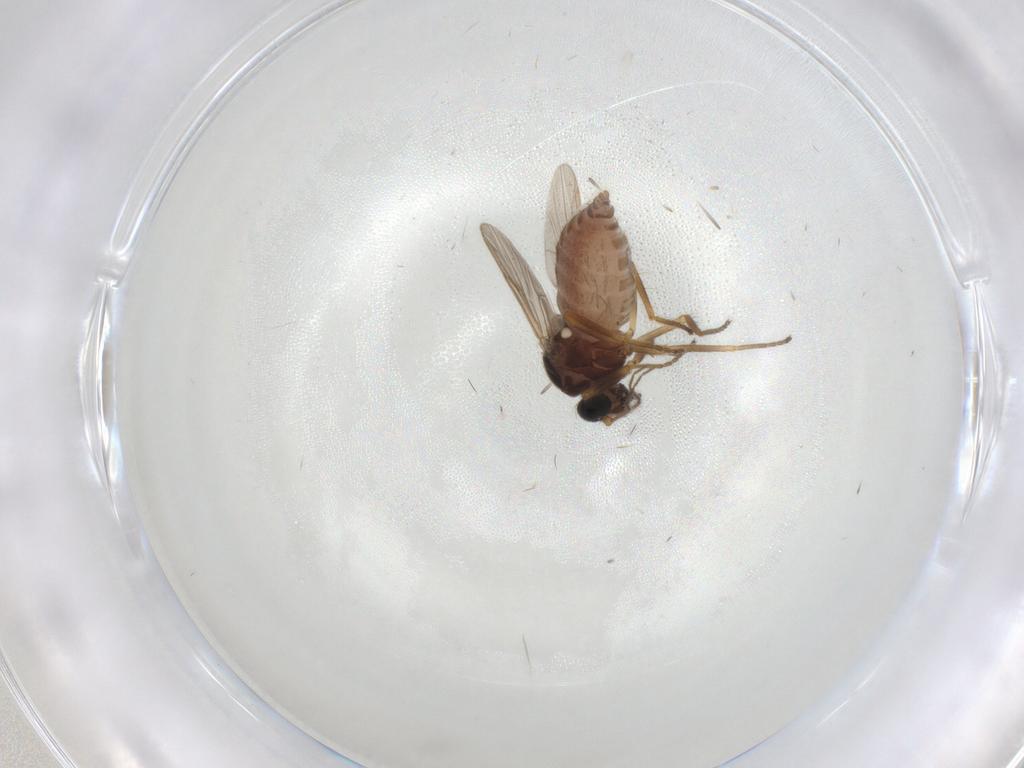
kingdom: Animalia
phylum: Arthropoda
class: Insecta
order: Diptera
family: Ceratopogonidae
